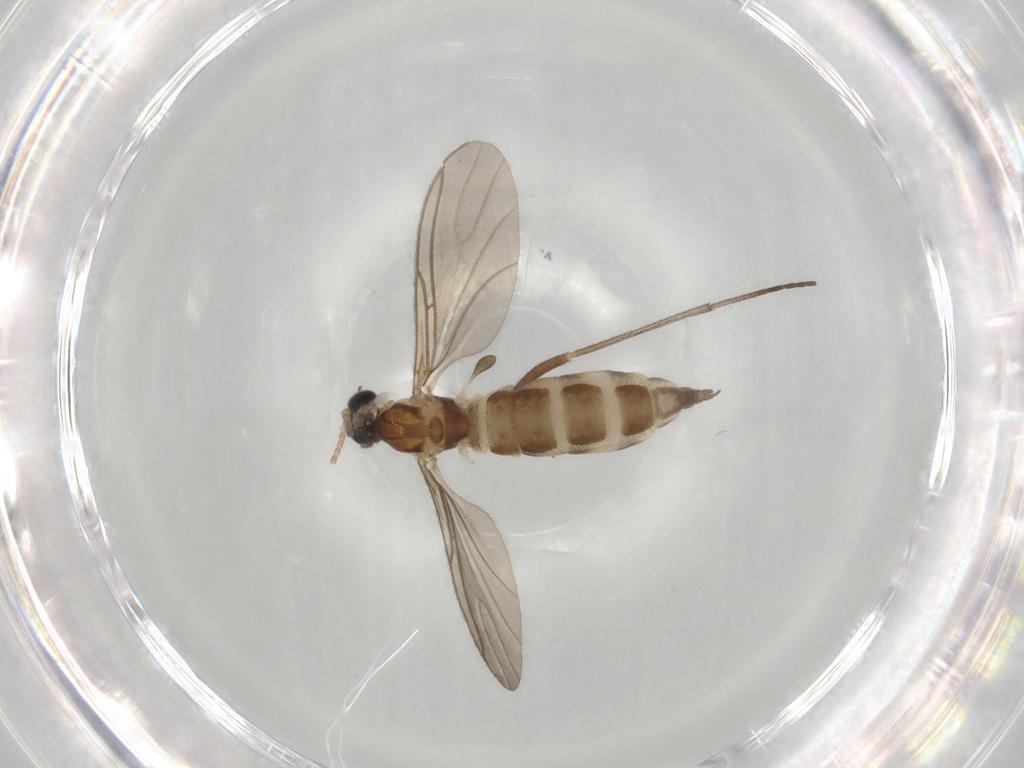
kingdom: Animalia
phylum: Arthropoda
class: Insecta
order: Diptera
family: Sciaridae
